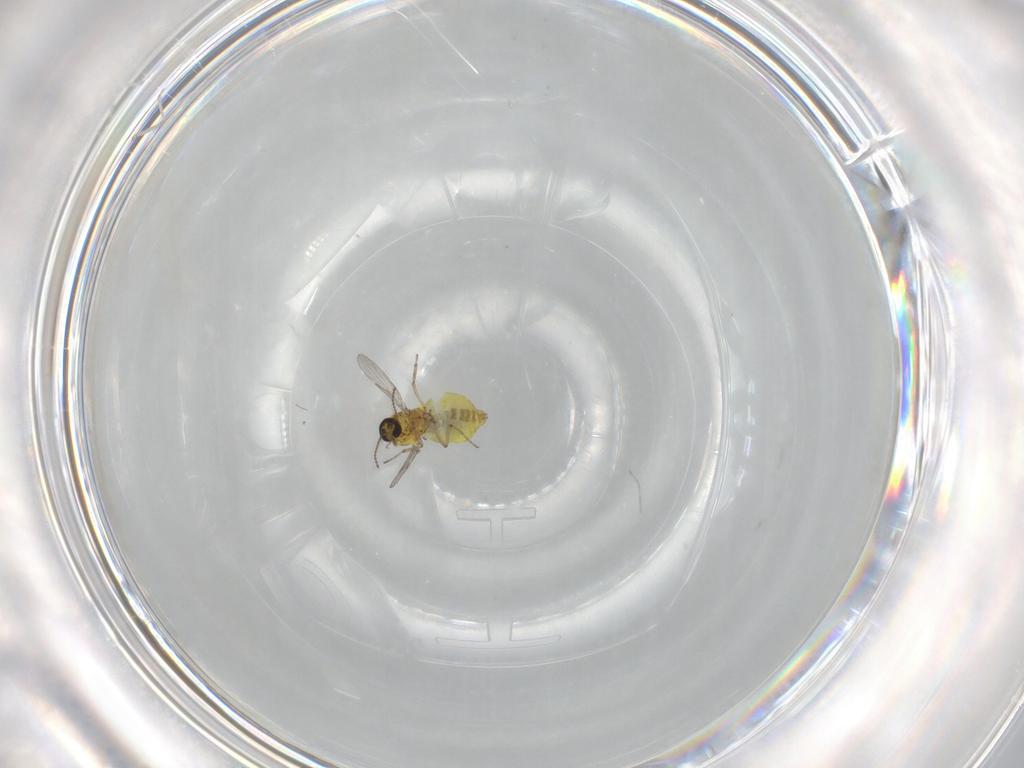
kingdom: Animalia
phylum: Arthropoda
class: Insecta
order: Diptera
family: Ceratopogonidae
